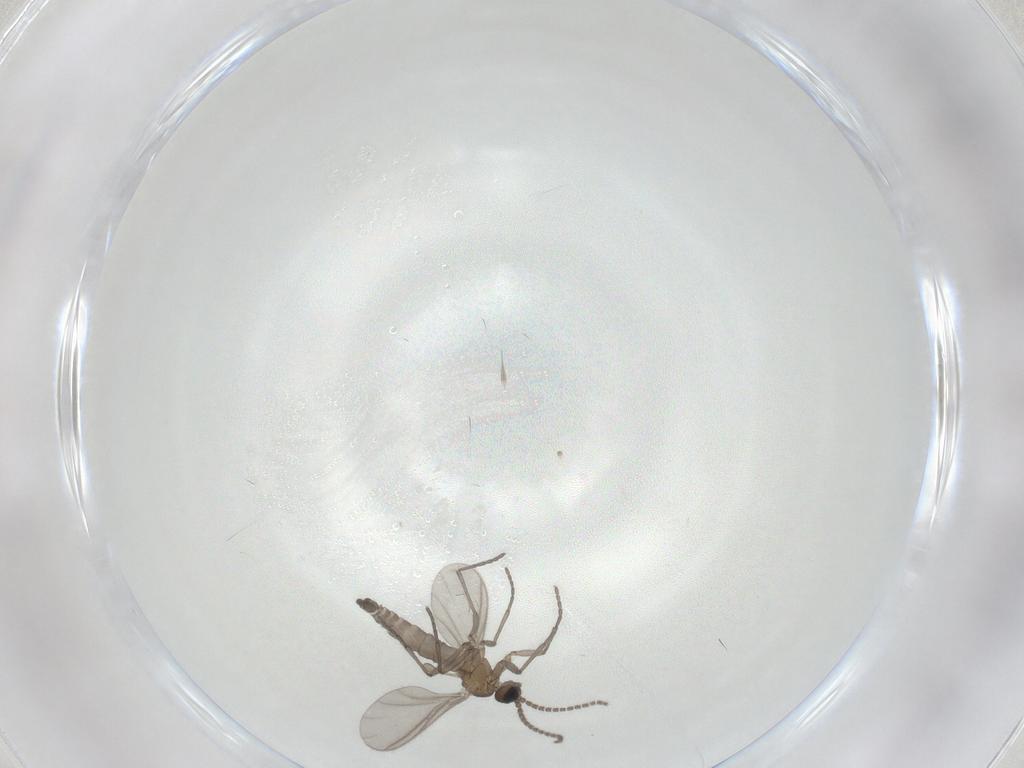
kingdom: Animalia
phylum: Arthropoda
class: Insecta
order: Diptera
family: Sciaridae
